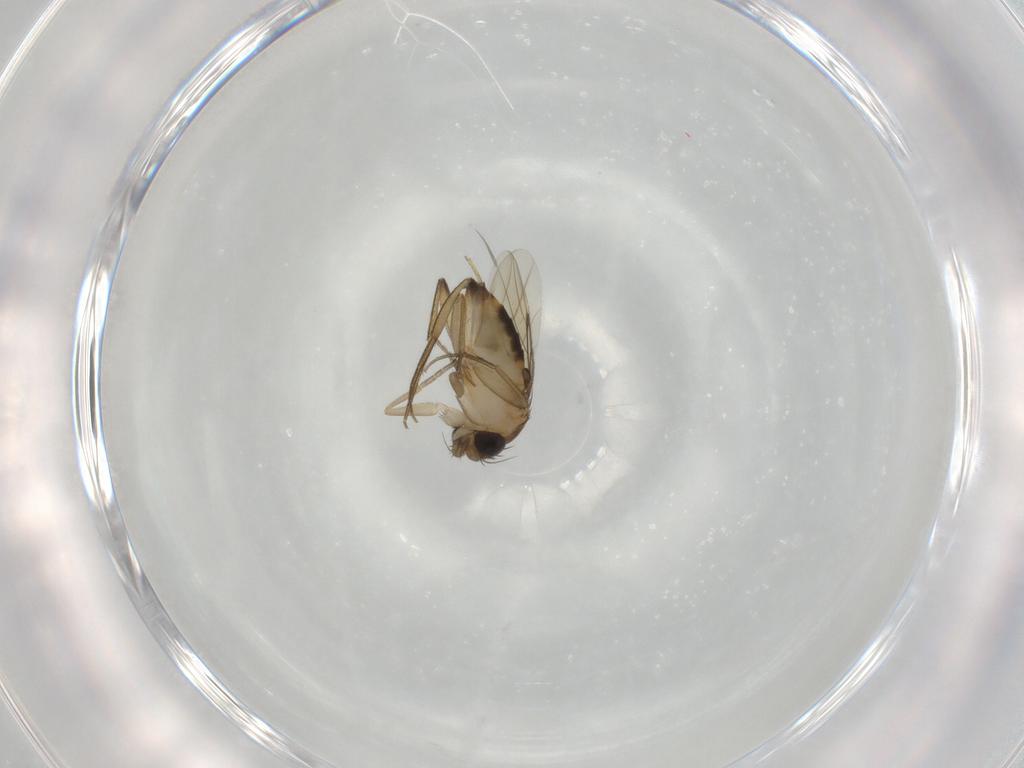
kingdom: Animalia
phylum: Arthropoda
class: Insecta
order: Diptera
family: Phoridae
